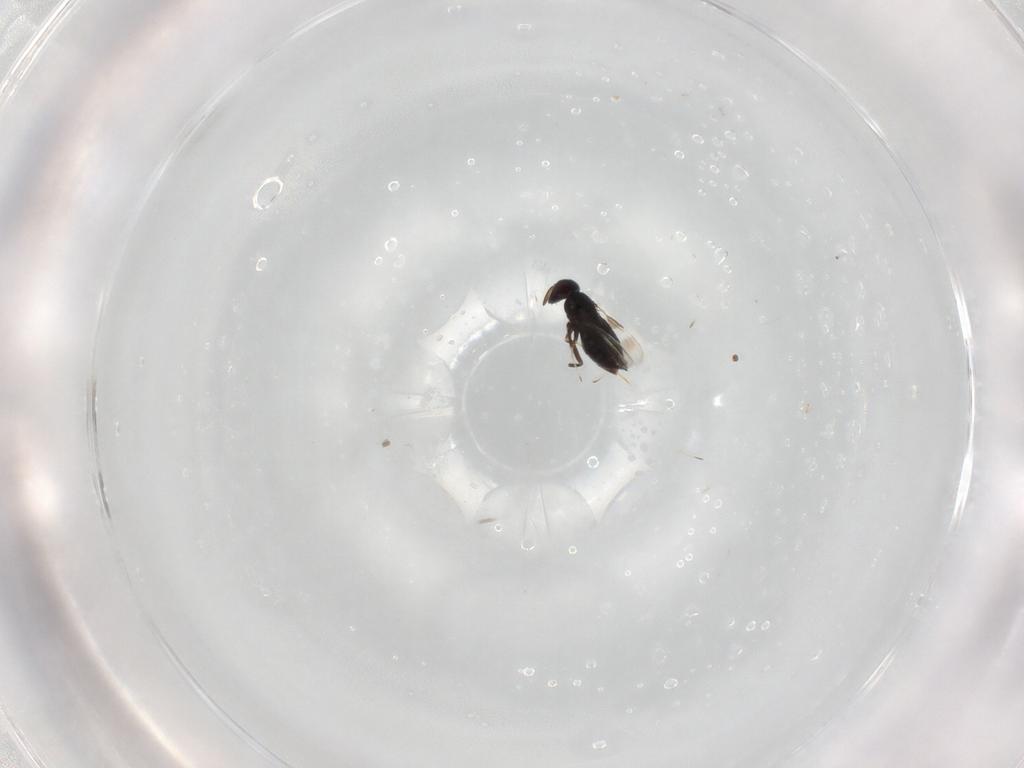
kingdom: Animalia
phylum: Arthropoda
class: Insecta
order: Hymenoptera
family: Signiphoridae
